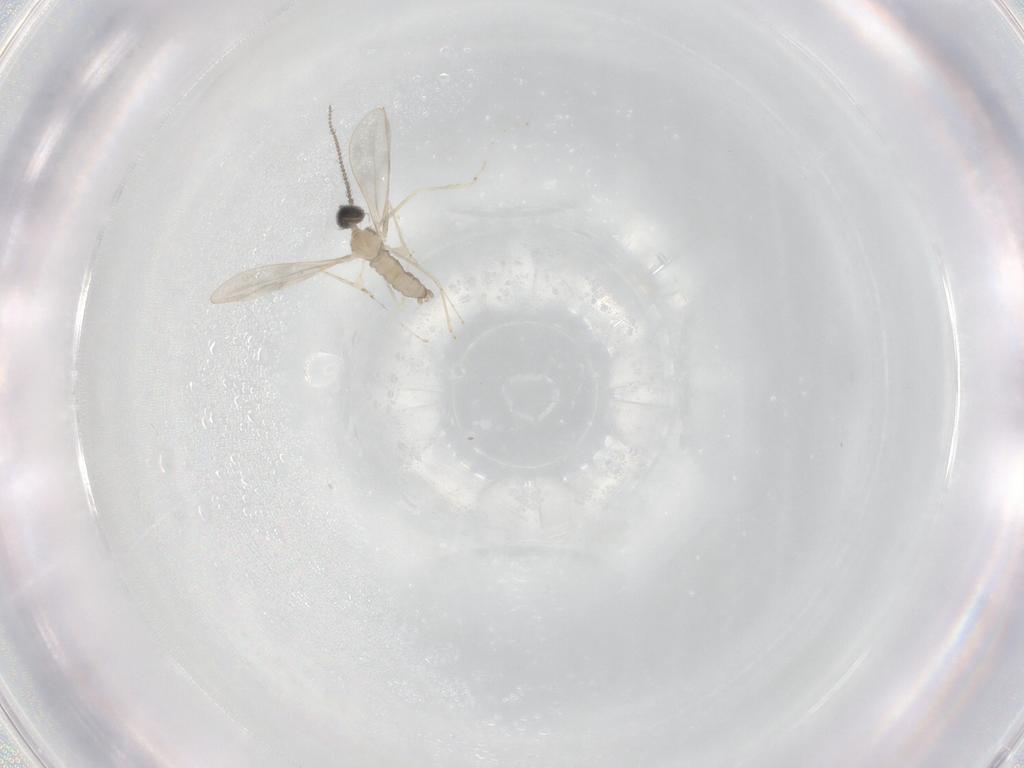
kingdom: Animalia
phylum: Arthropoda
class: Insecta
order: Diptera
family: Cecidomyiidae
